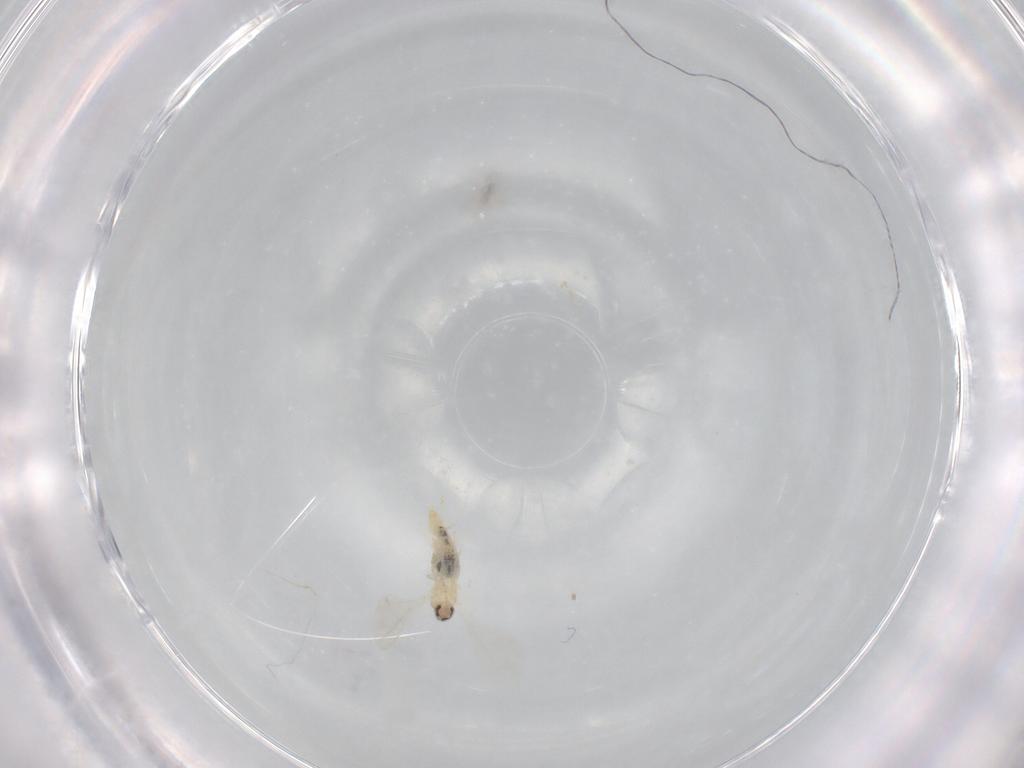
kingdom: Animalia
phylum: Arthropoda
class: Insecta
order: Diptera
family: Cecidomyiidae
